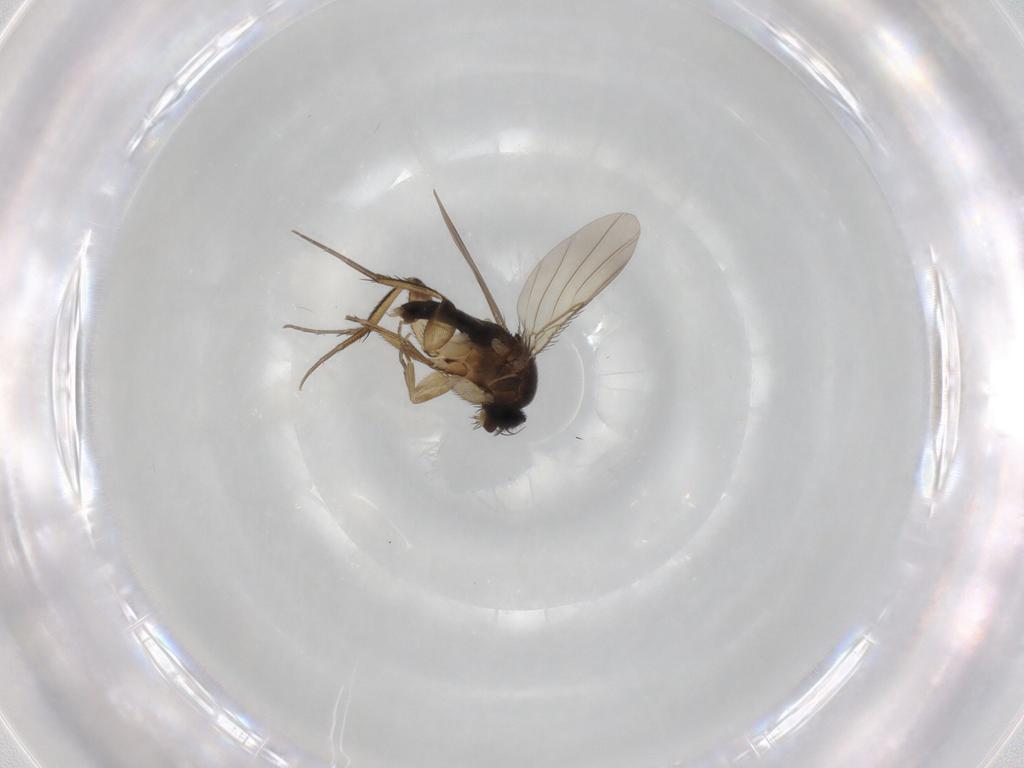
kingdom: Animalia
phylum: Arthropoda
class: Insecta
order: Diptera
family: Phoridae
